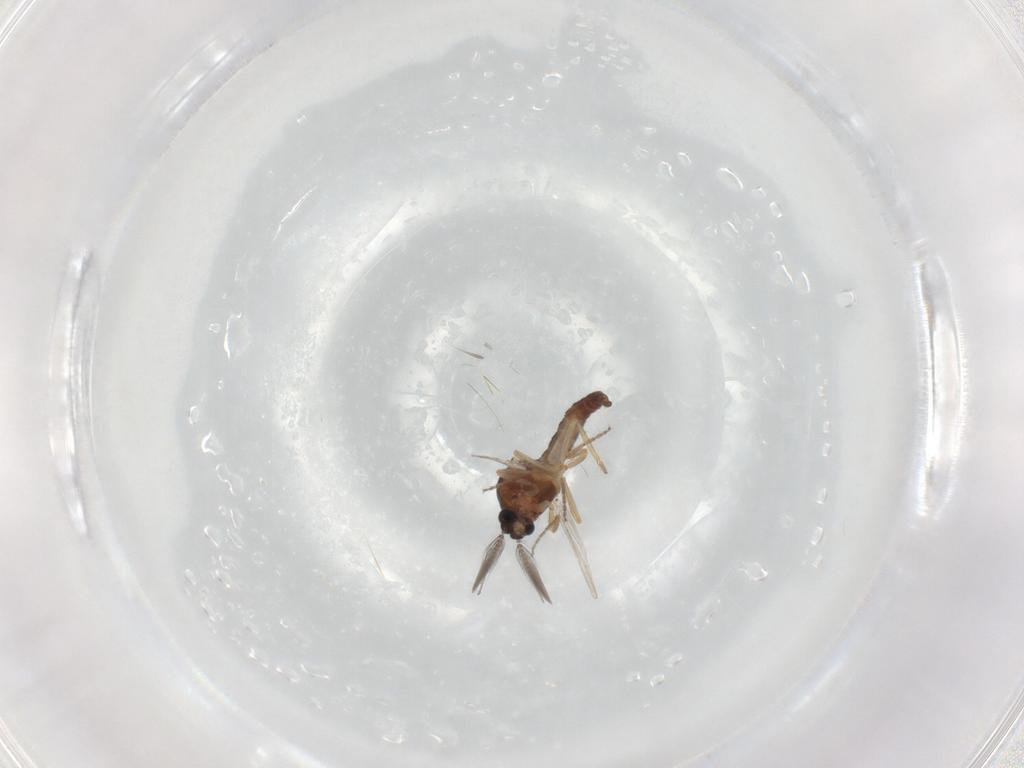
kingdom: Animalia
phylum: Arthropoda
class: Insecta
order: Diptera
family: Ceratopogonidae
